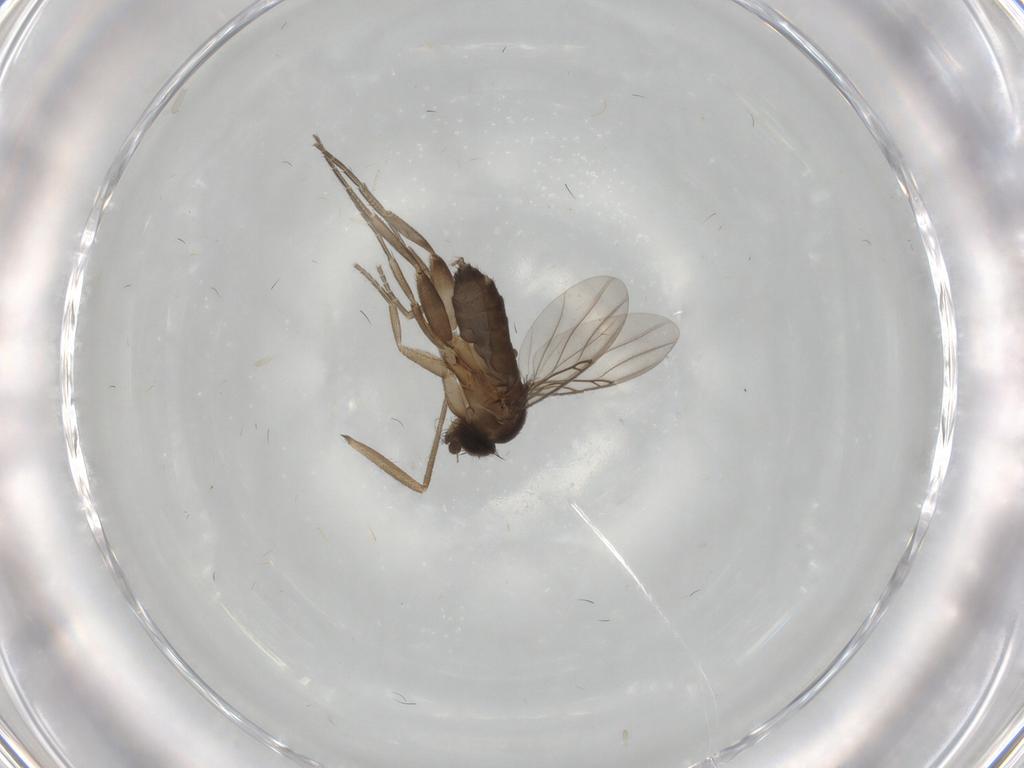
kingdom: Animalia
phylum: Arthropoda
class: Insecta
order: Diptera
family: Phoridae
